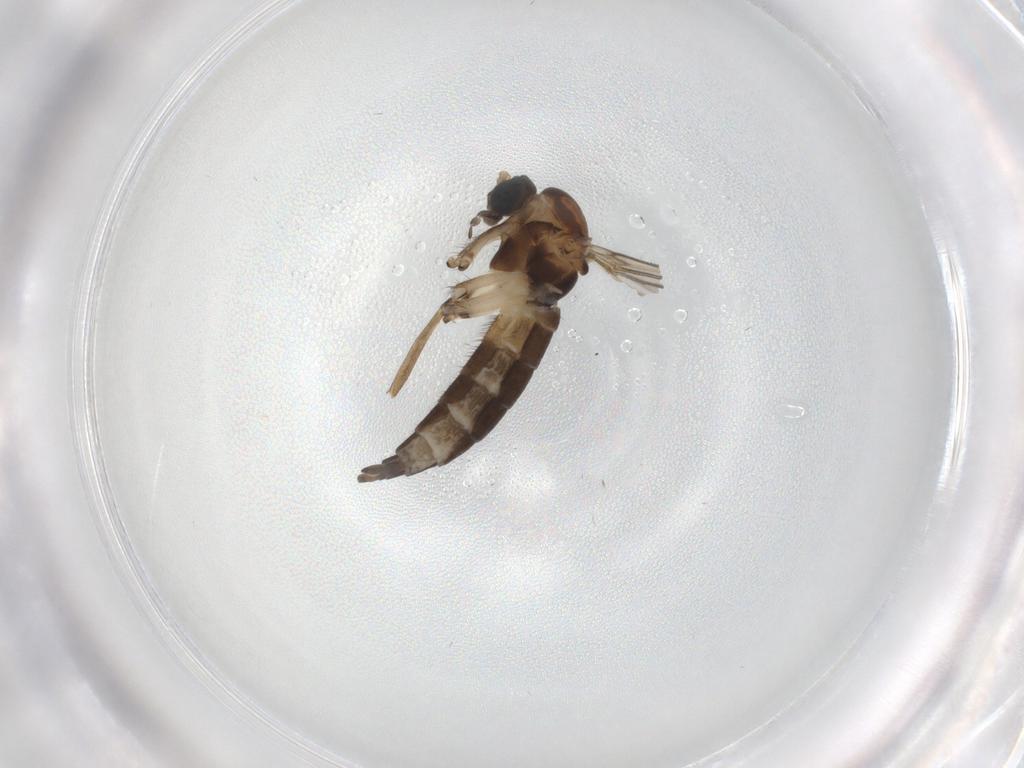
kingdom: Animalia
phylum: Arthropoda
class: Insecta
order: Diptera
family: Sciaridae
